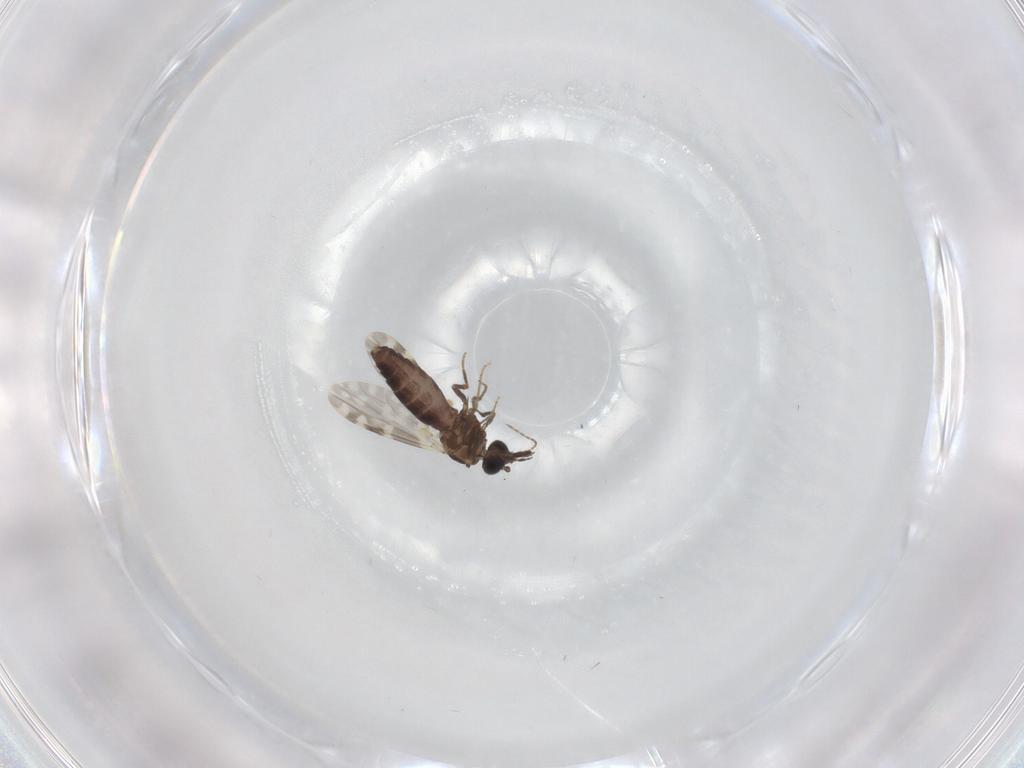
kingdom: Animalia
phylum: Arthropoda
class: Insecta
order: Diptera
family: Ceratopogonidae
